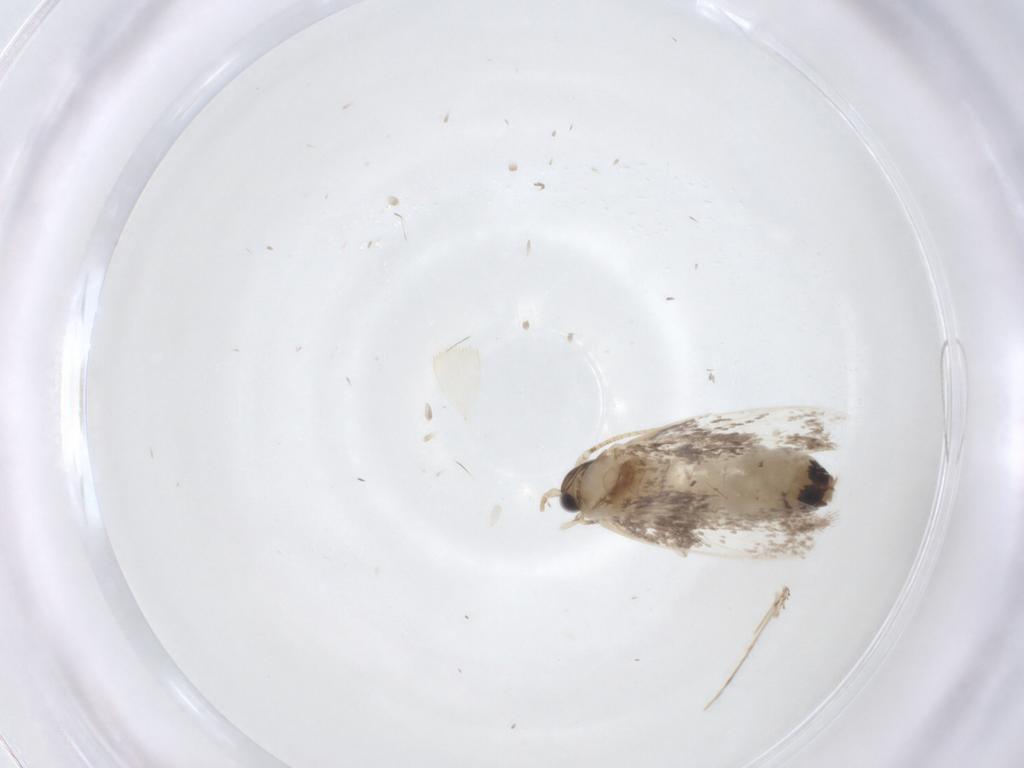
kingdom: Animalia
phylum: Arthropoda
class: Insecta
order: Lepidoptera
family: Dryadaulidae
